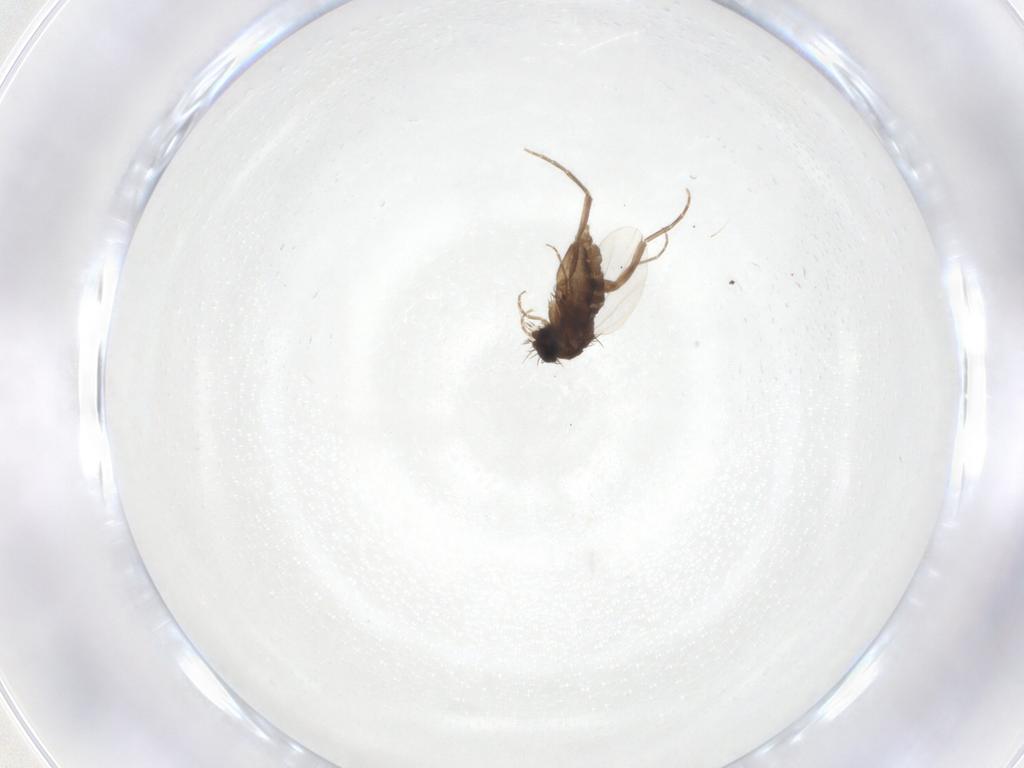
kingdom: Animalia
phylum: Arthropoda
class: Insecta
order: Diptera
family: Phoridae
